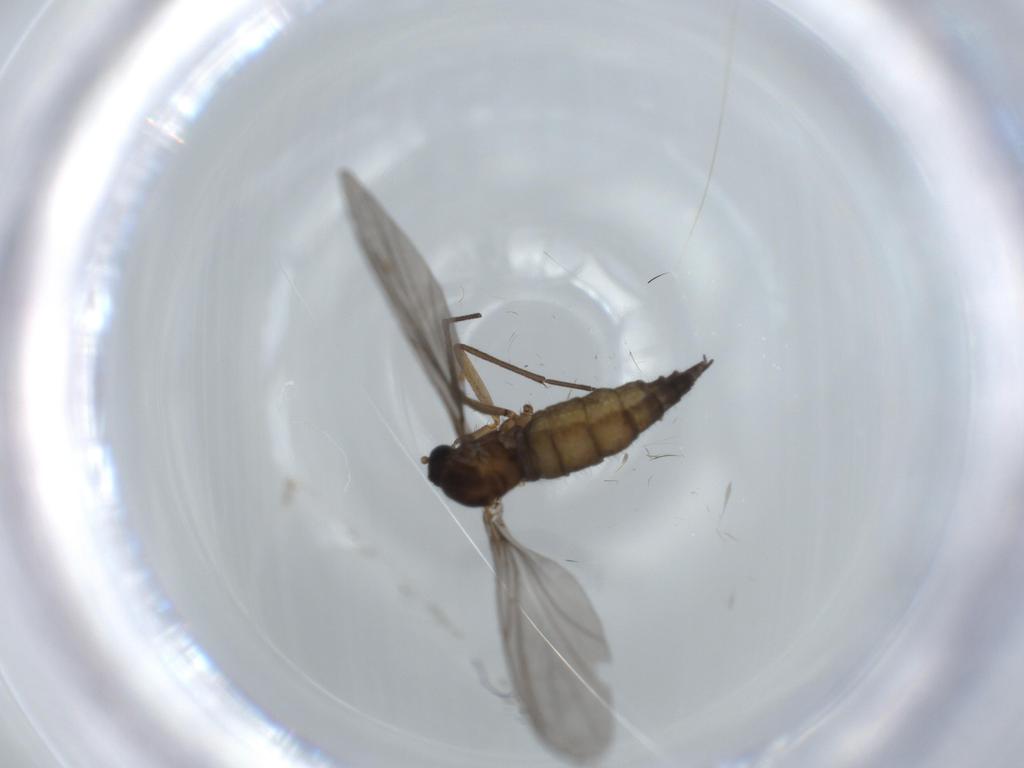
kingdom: Animalia
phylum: Arthropoda
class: Insecta
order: Diptera
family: Sciaridae
